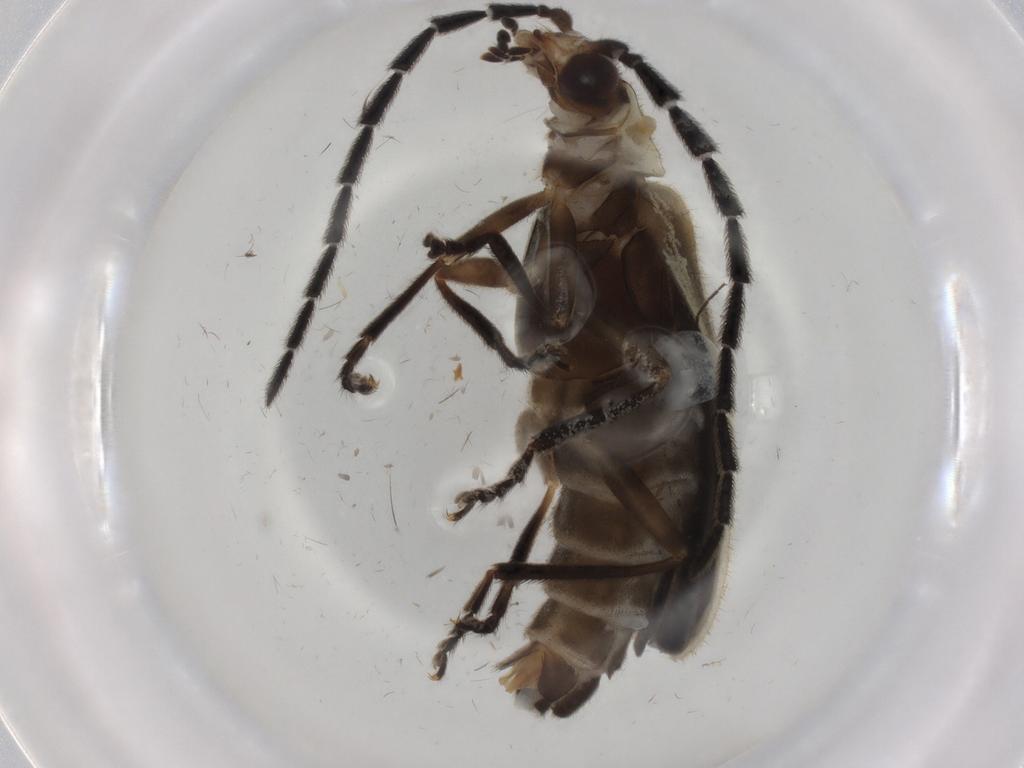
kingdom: Animalia
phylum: Arthropoda
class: Insecta
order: Coleoptera
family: Cantharidae
